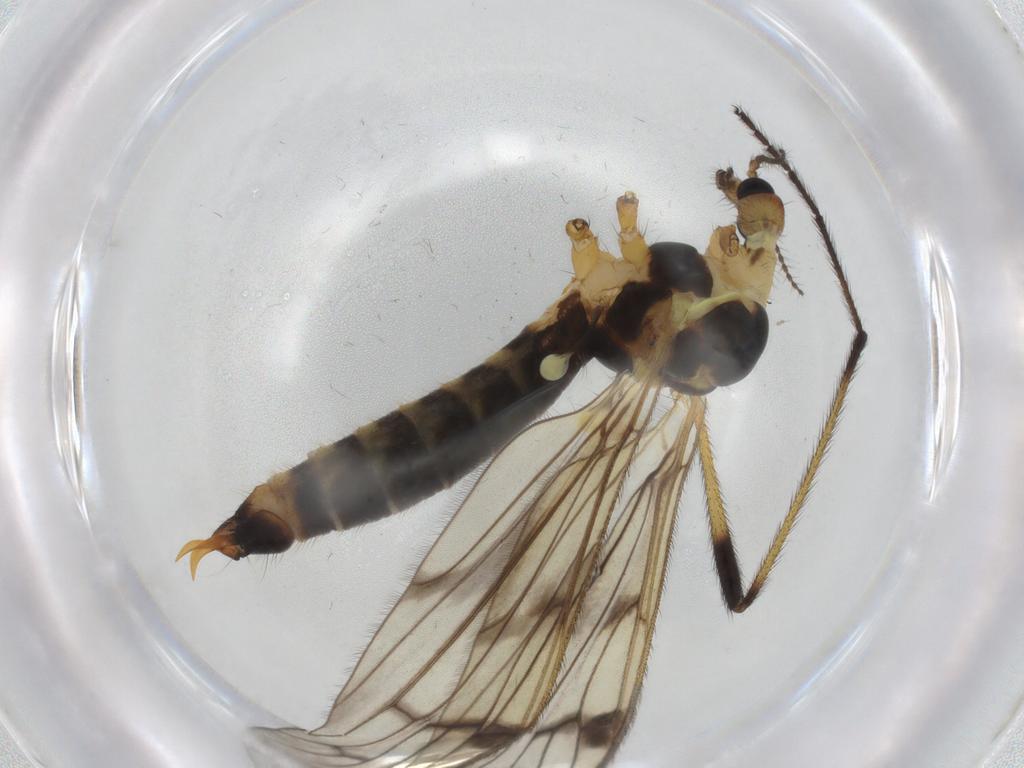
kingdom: Animalia
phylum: Arthropoda
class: Insecta
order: Diptera
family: Limoniidae
